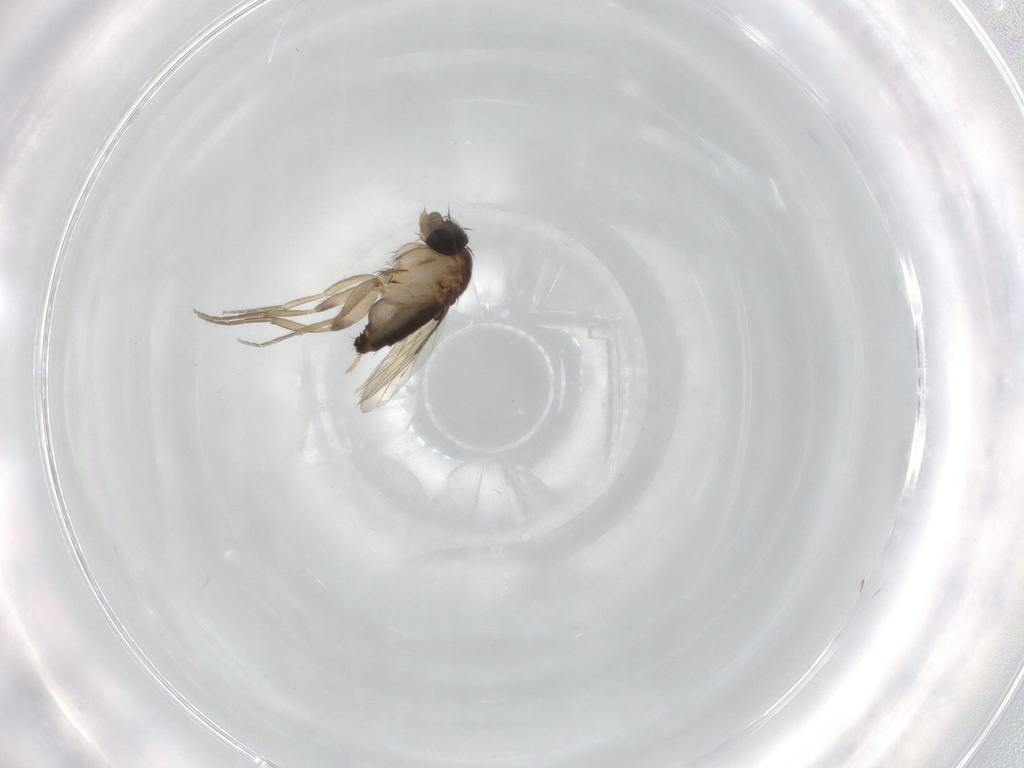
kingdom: Animalia
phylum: Arthropoda
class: Insecta
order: Diptera
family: Phoridae
